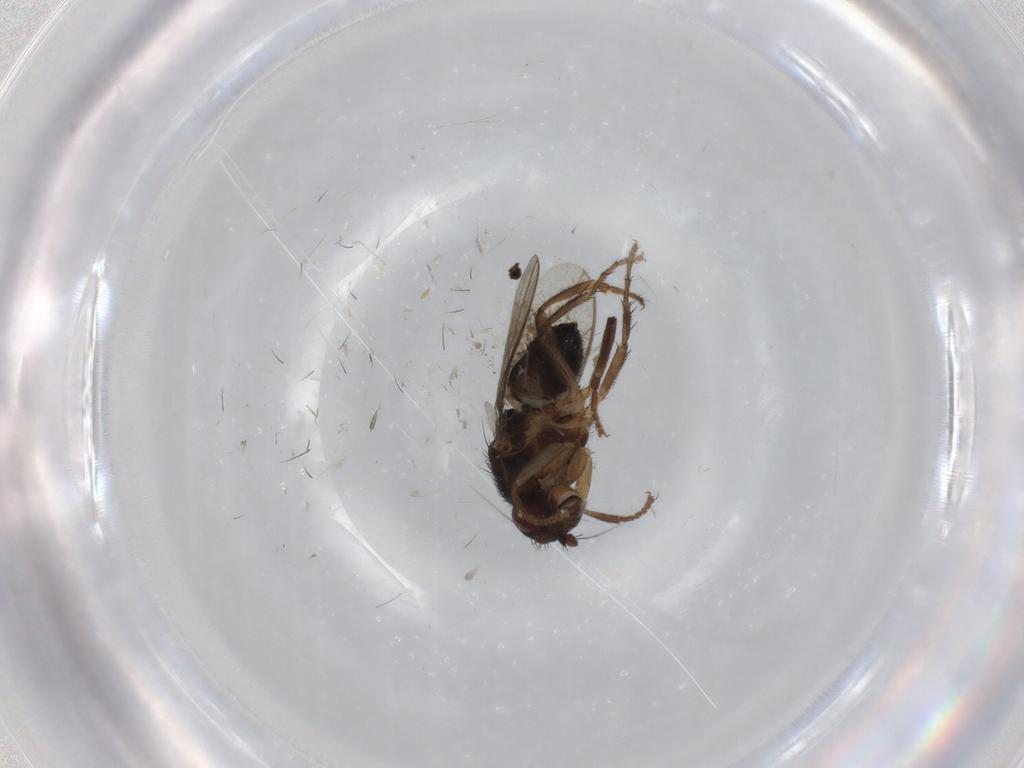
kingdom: Animalia
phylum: Arthropoda
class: Insecta
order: Diptera
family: Sphaeroceridae
